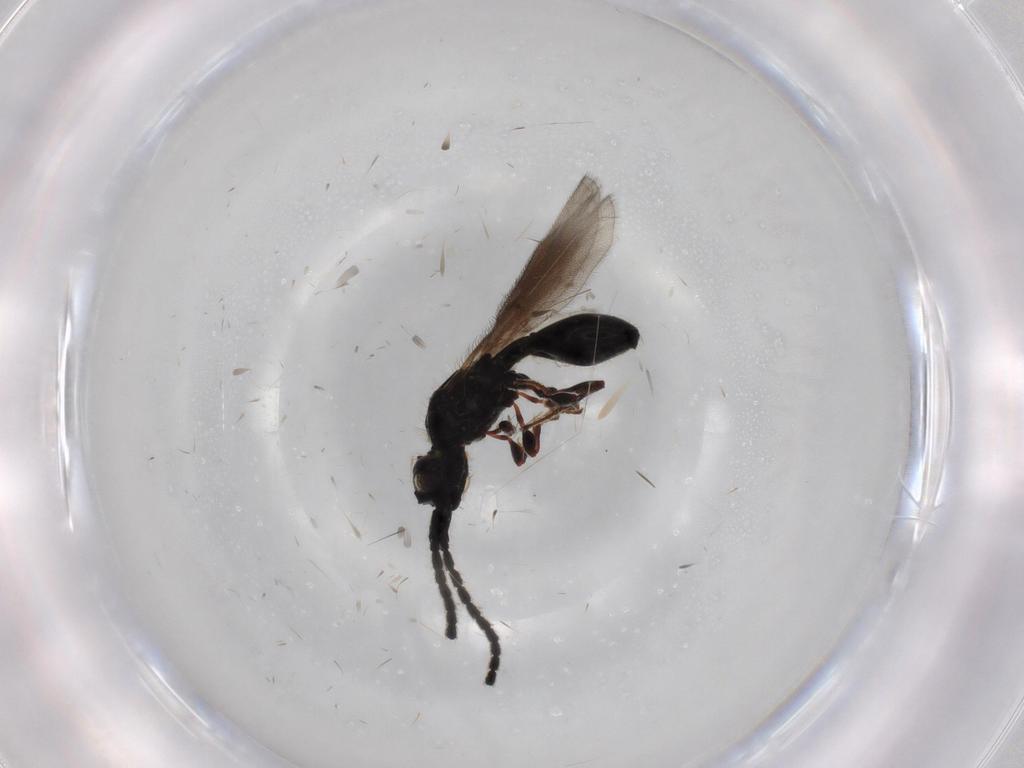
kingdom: Animalia
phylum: Arthropoda
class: Insecta
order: Hymenoptera
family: Diapriidae
